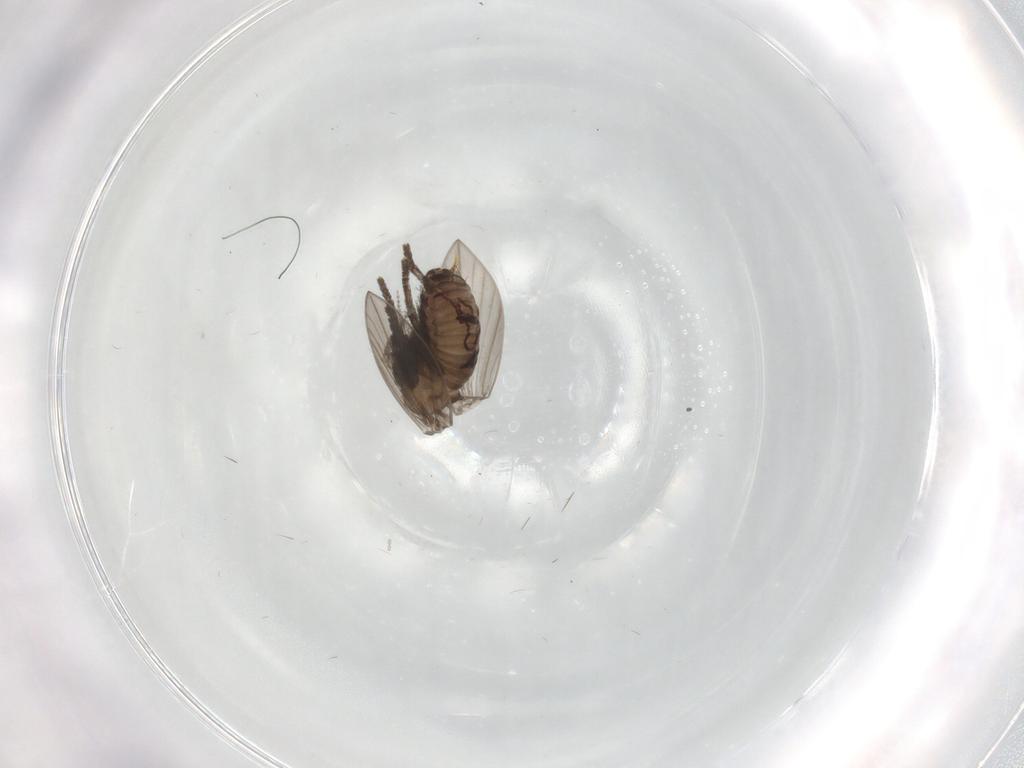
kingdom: Animalia
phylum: Arthropoda
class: Insecta
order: Diptera
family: Psychodidae
